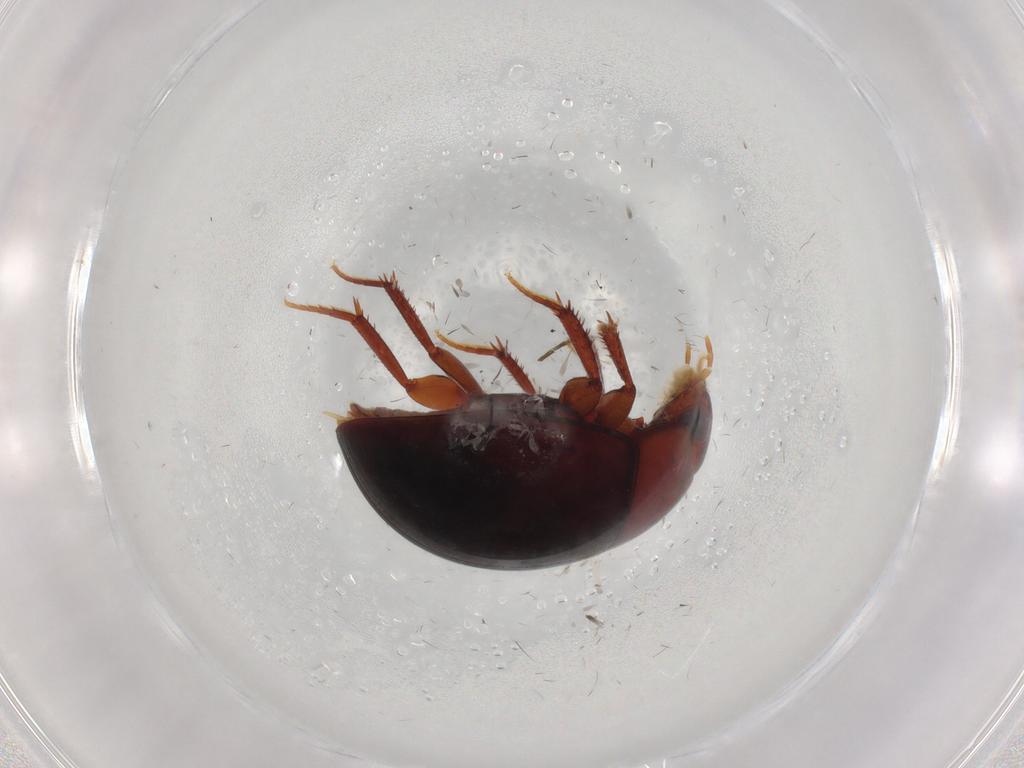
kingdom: Animalia
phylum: Arthropoda
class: Insecta
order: Coleoptera
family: Hydrophilidae
